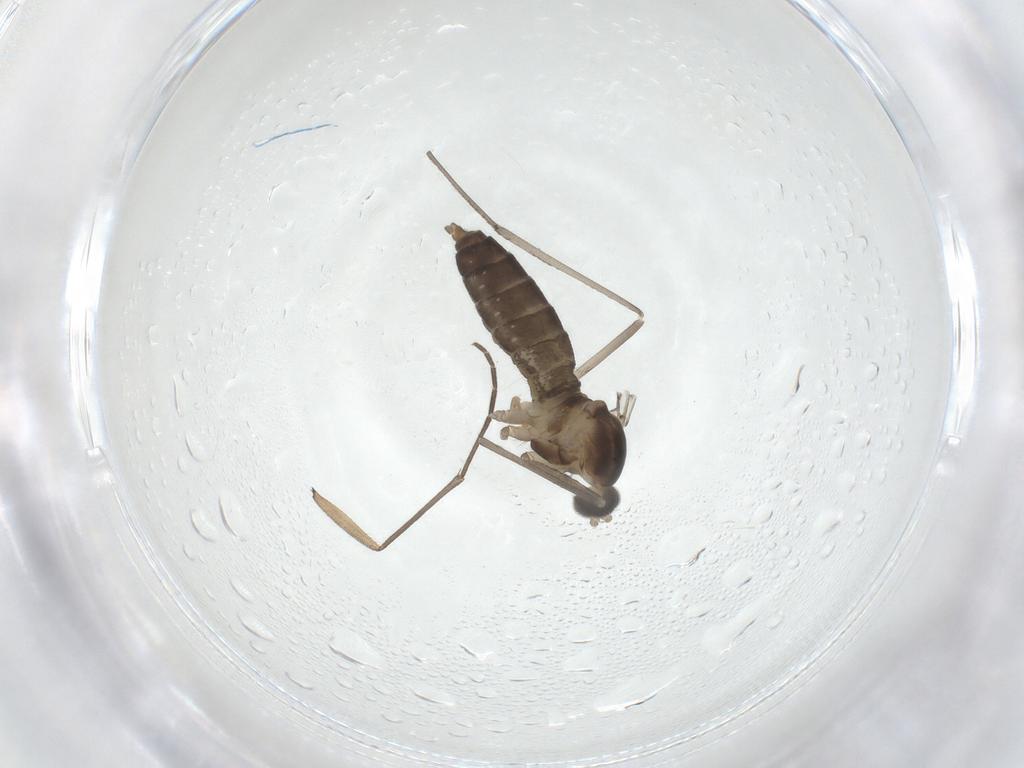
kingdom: Animalia
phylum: Arthropoda
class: Insecta
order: Diptera
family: Cecidomyiidae
